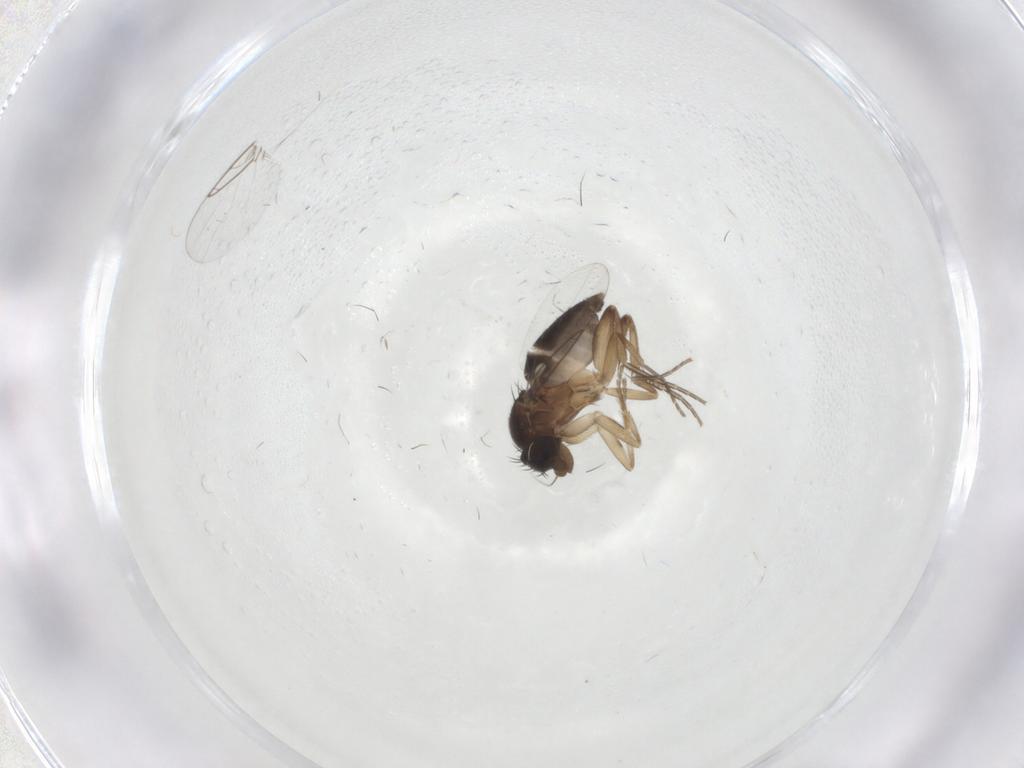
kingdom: Animalia
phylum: Arthropoda
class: Insecta
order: Diptera
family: Phoridae
